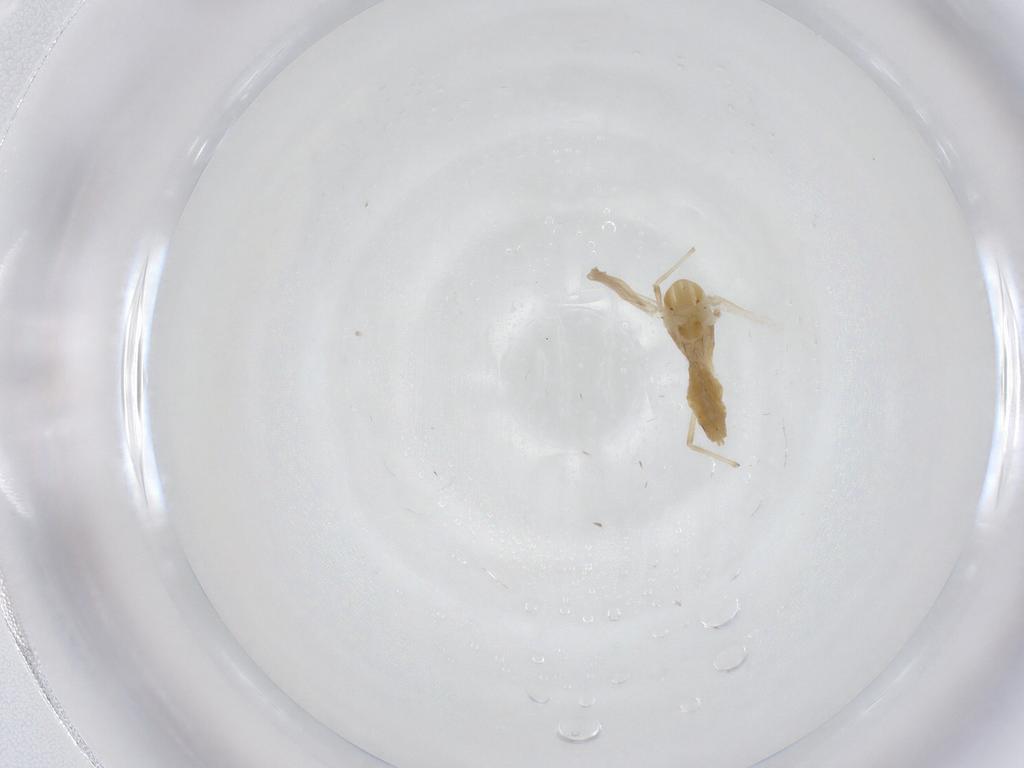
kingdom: Animalia
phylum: Arthropoda
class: Insecta
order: Diptera
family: Chironomidae
